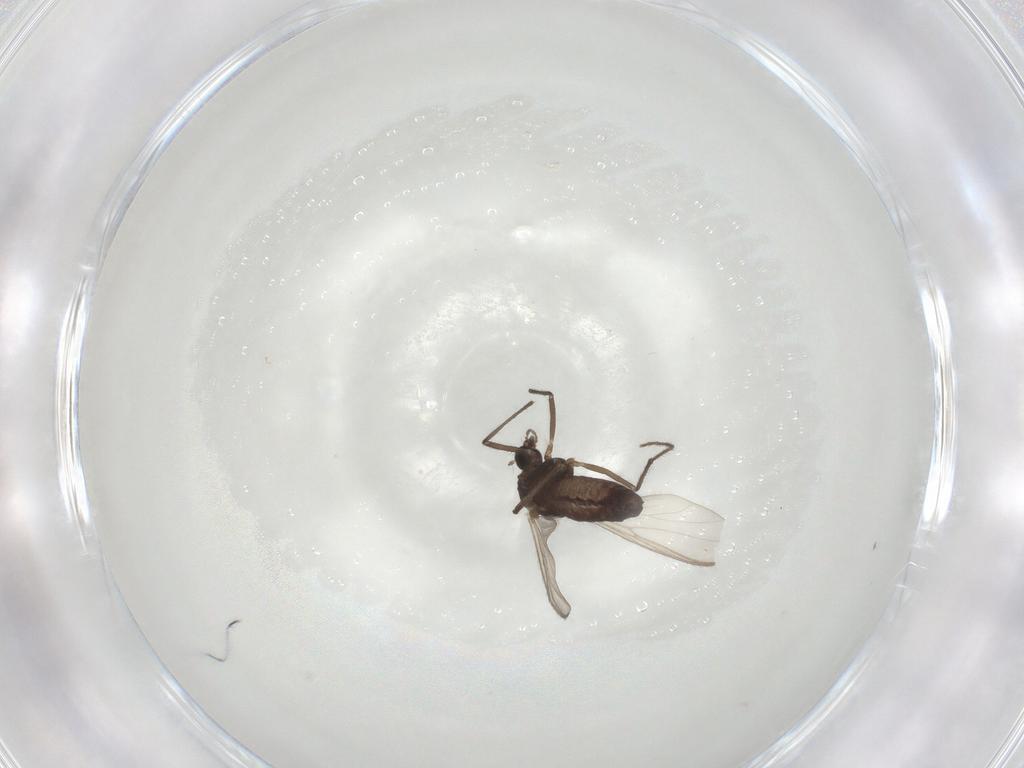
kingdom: Animalia
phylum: Arthropoda
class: Insecta
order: Diptera
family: Chironomidae
